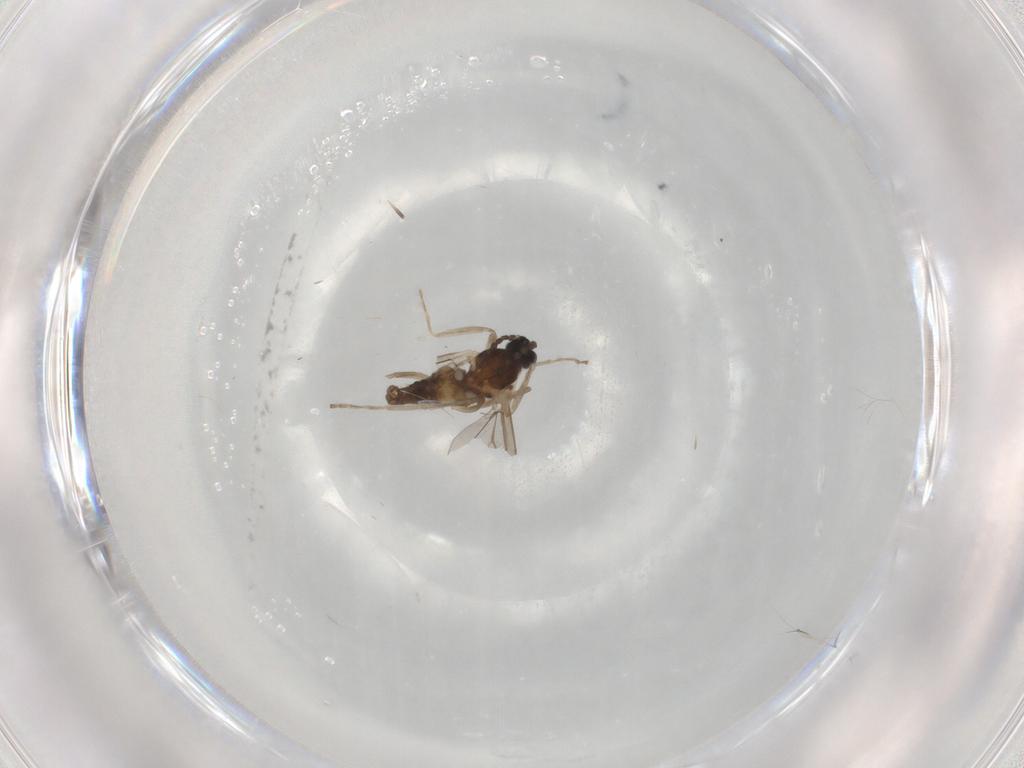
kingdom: Animalia
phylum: Arthropoda
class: Insecta
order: Diptera
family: Cecidomyiidae
